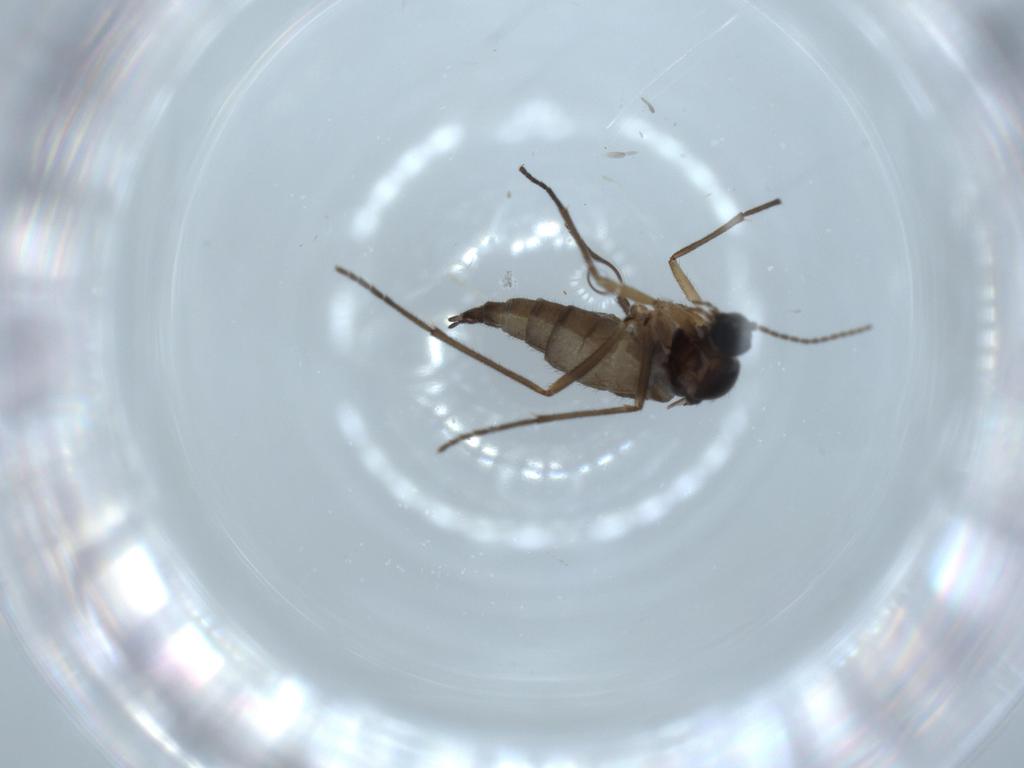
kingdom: Animalia
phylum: Arthropoda
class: Insecta
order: Diptera
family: Sciaridae
